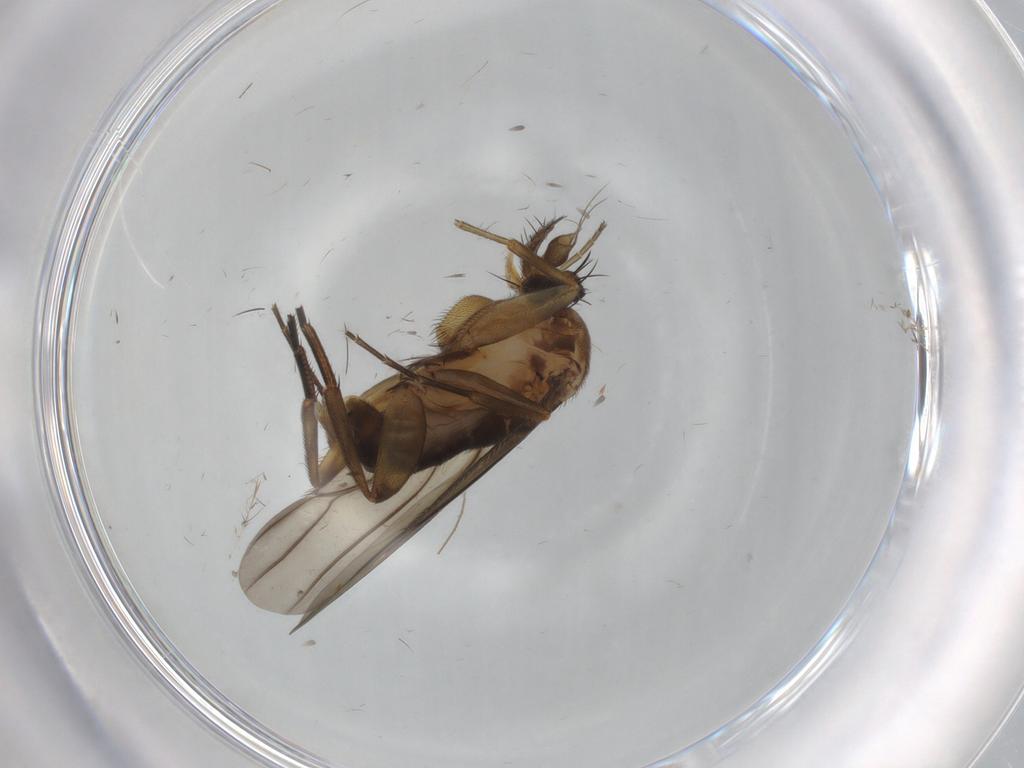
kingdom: Animalia
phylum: Arthropoda
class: Insecta
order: Diptera
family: Phoridae
